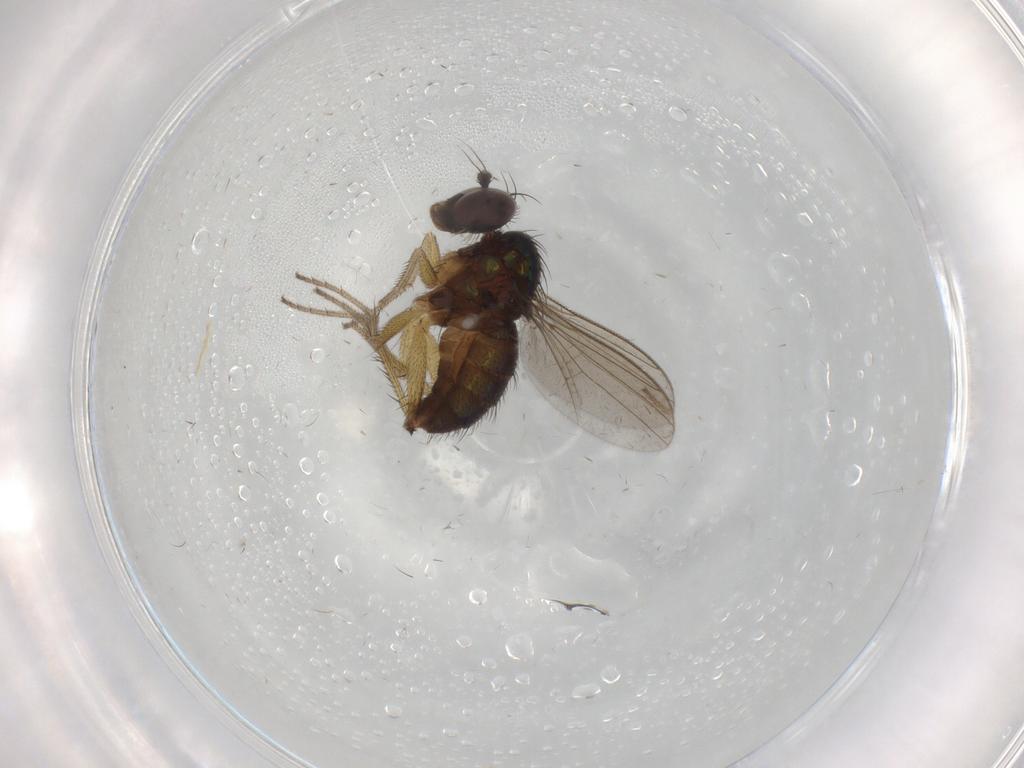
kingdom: Animalia
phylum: Arthropoda
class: Insecta
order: Diptera
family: Dolichopodidae
